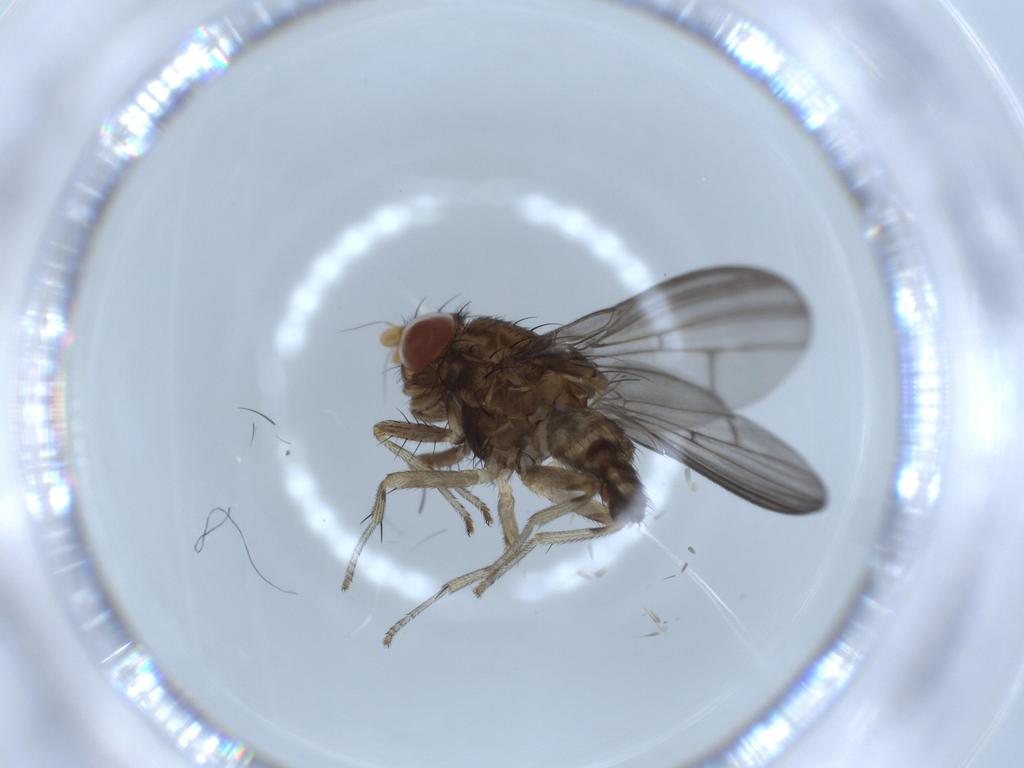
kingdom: Animalia
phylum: Arthropoda
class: Insecta
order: Diptera
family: Lauxaniidae
